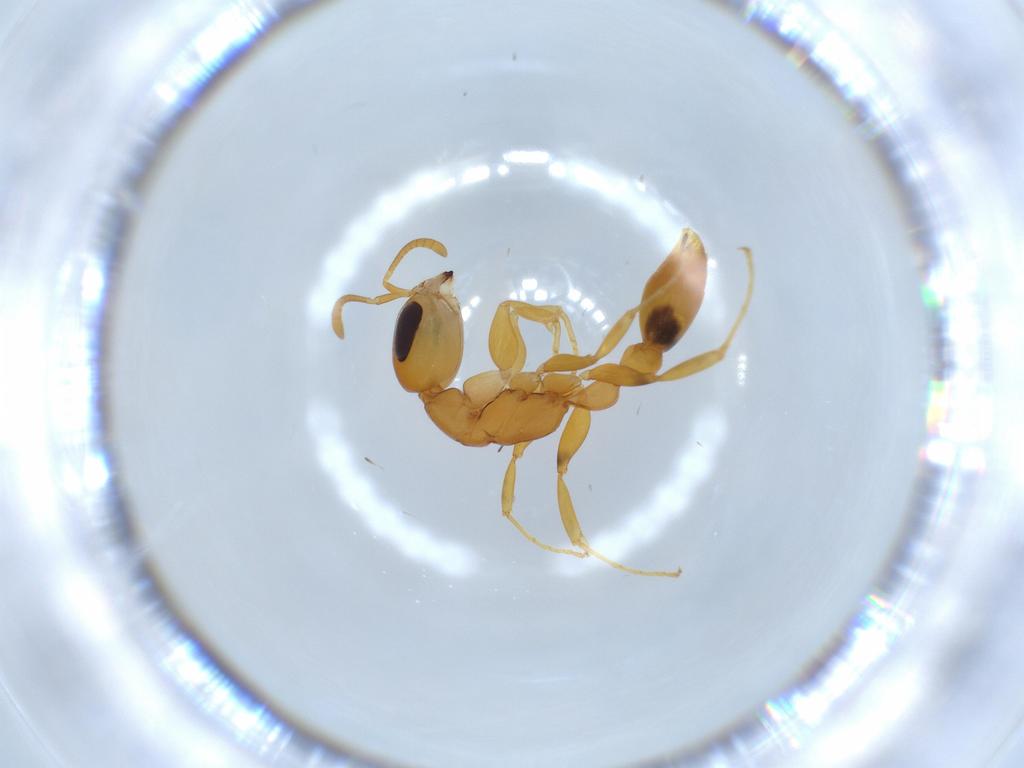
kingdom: Animalia
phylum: Arthropoda
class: Insecta
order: Hymenoptera
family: Formicidae
